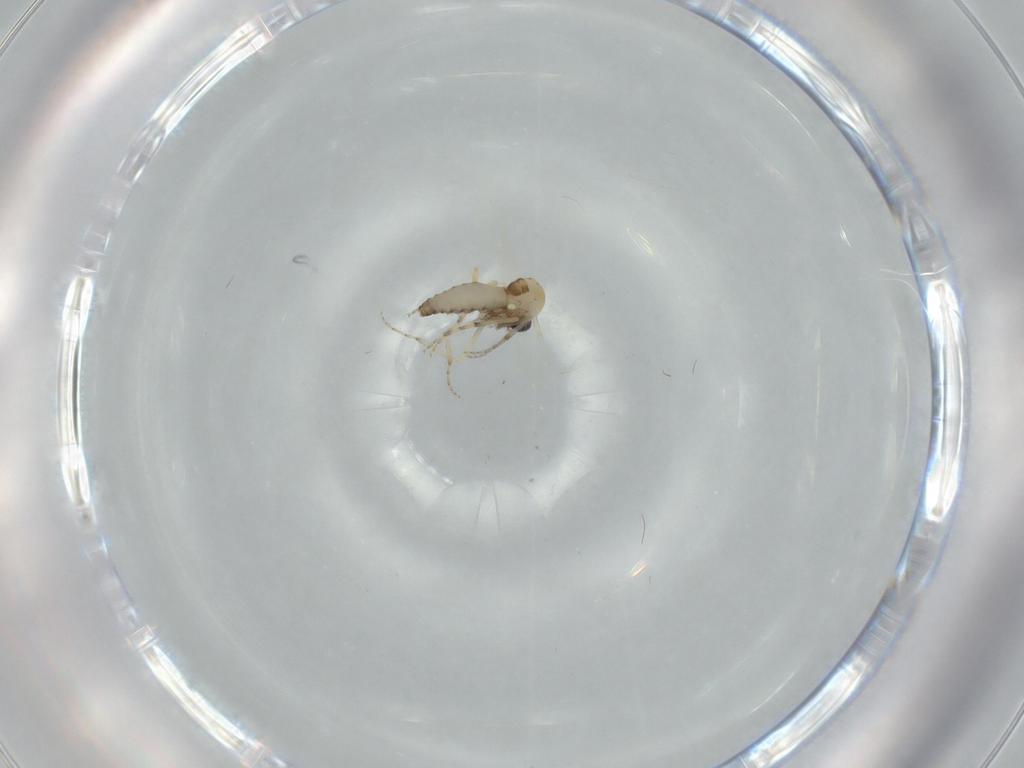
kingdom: Animalia
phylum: Arthropoda
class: Insecta
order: Diptera
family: Ceratopogonidae
